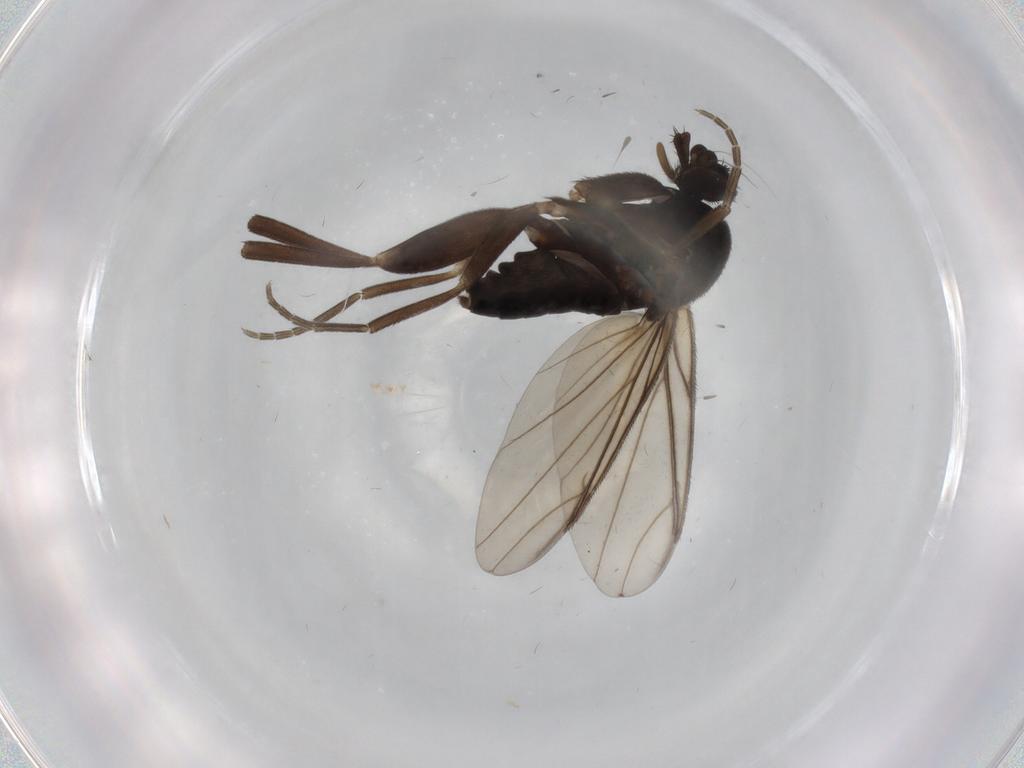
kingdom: Animalia
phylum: Arthropoda
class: Insecta
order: Diptera
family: Phoridae
